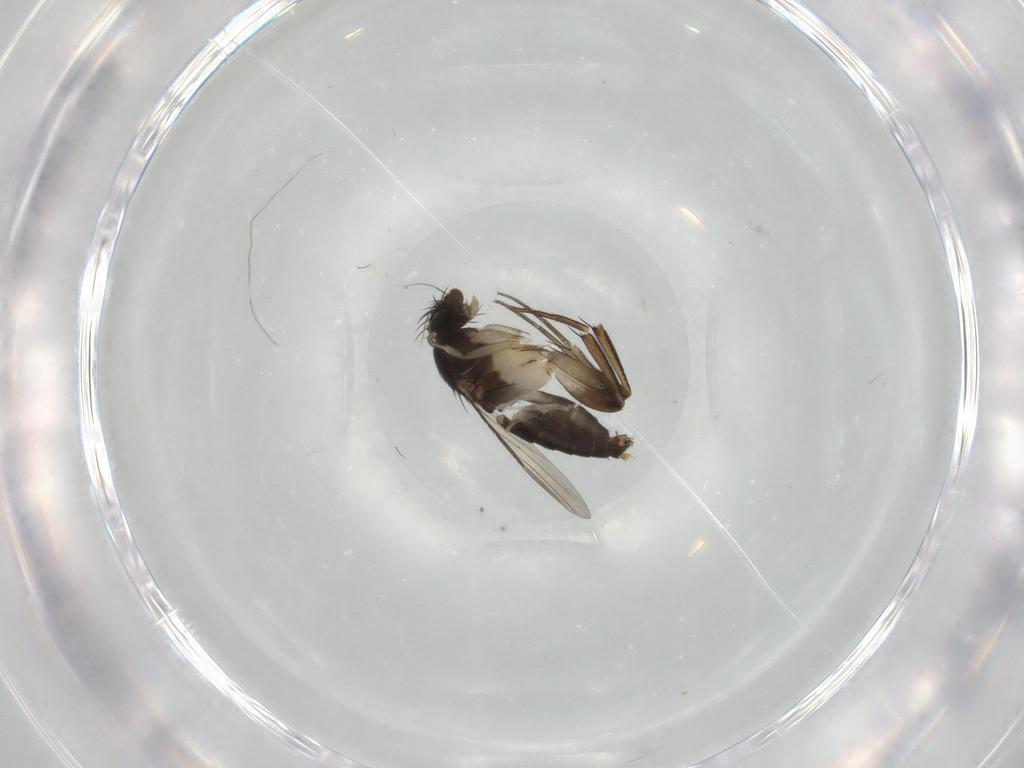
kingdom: Animalia
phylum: Arthropoda
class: Insecta
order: Diptera
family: Phoridae
